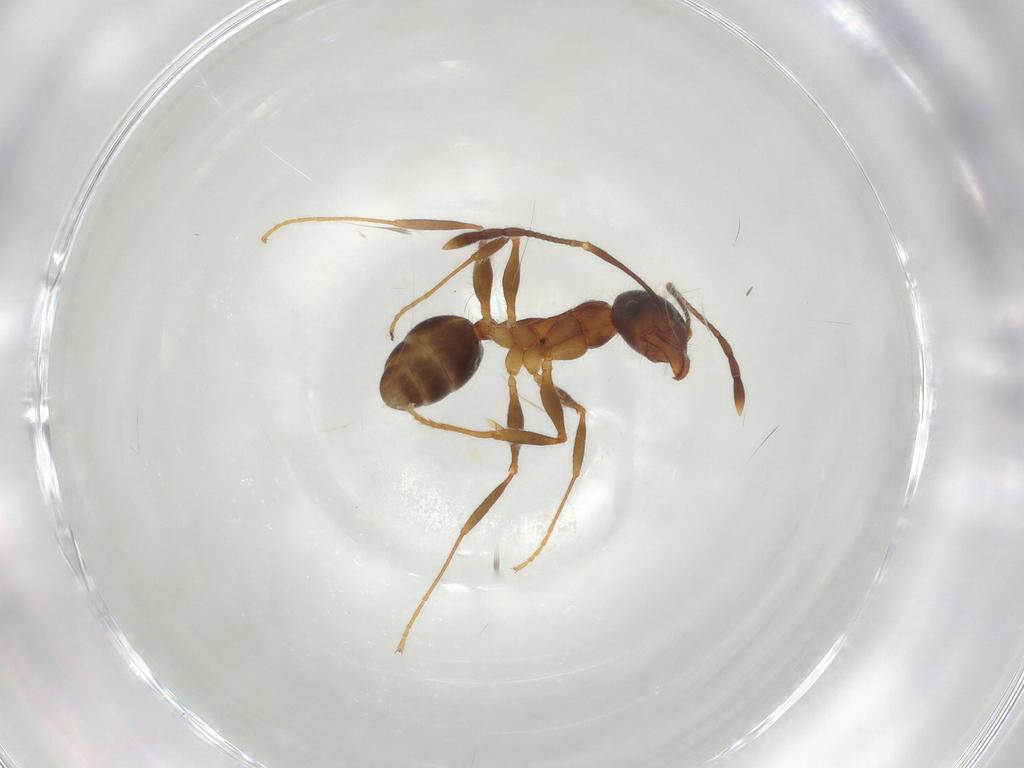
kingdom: Animalia
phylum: Arthropoda
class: Insecta
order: Hymenoptera
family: Formicidae
